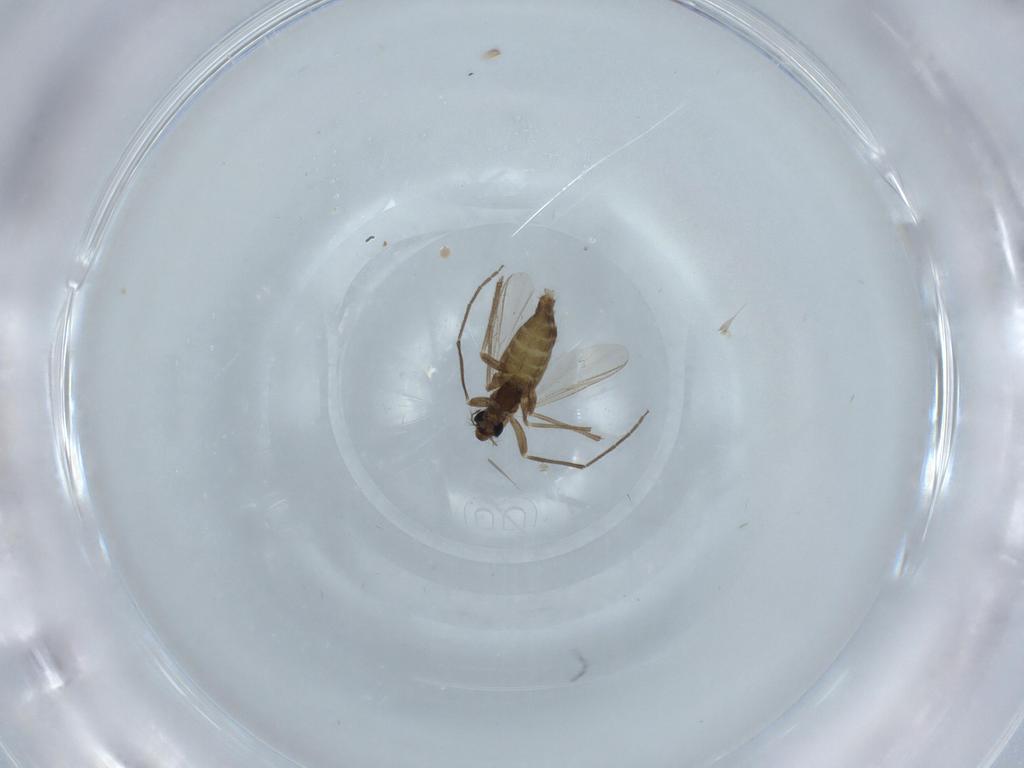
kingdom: Animalia
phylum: Arthropoda
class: Insecta
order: Diptera
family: Chironomidae
